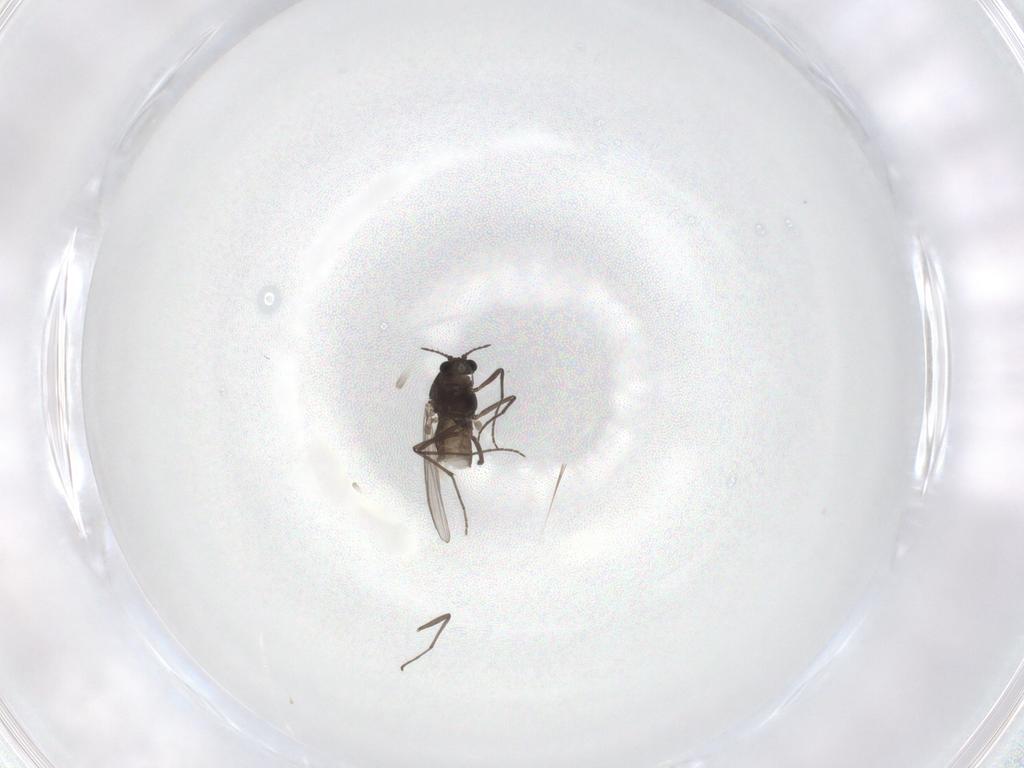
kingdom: Animalia
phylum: Arthropoda
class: Insecta
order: Diptera
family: Chironomidae
